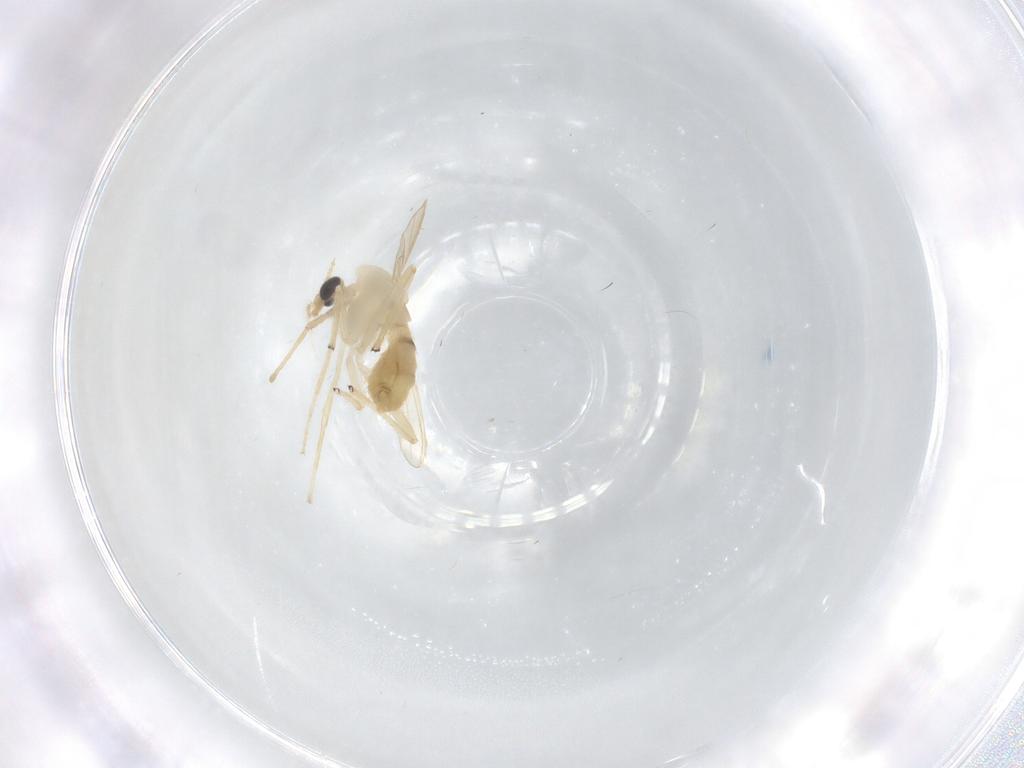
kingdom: Animalia
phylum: Arthropoda
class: Insecta
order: Diptera
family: Chironomidae
